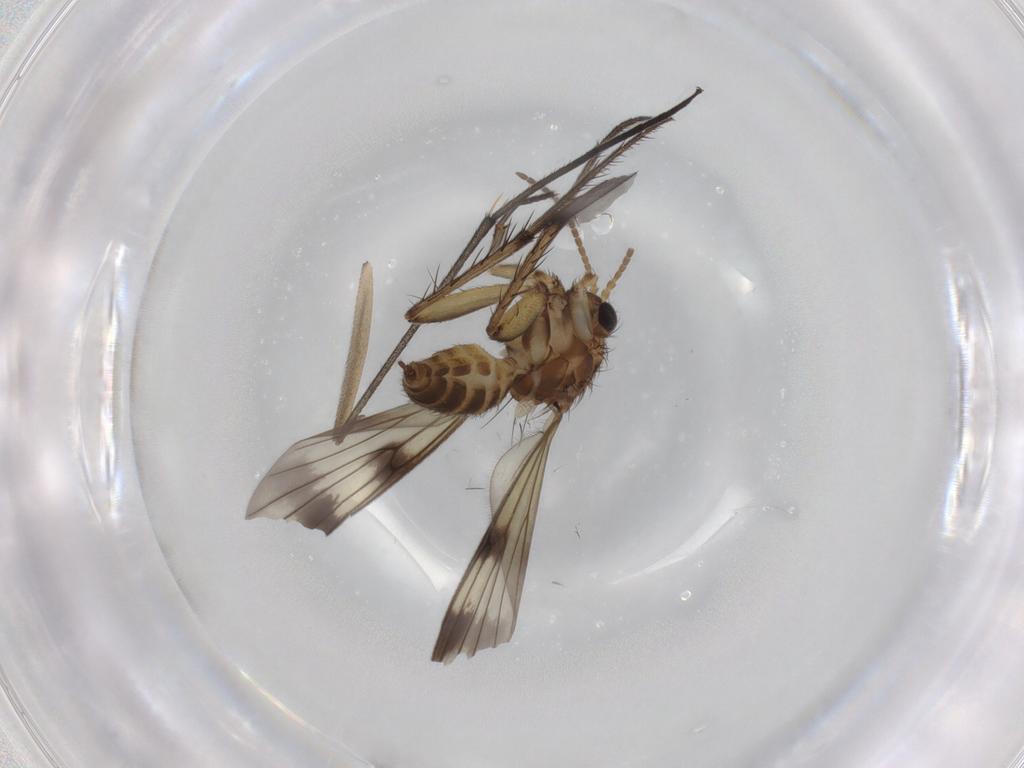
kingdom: Animalia
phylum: Arthropoda
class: Insecta
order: Diptera
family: Mycetophilidae
